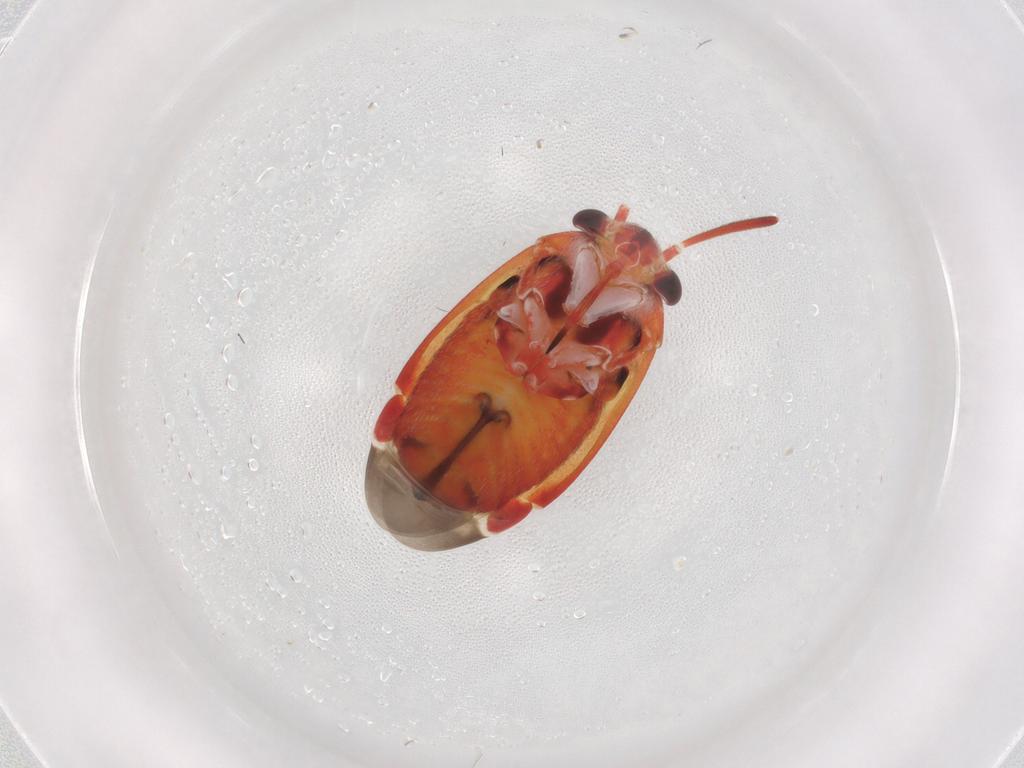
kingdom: Animalia
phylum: Arthropoda
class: Insecta
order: Hemiptera
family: Miridae
